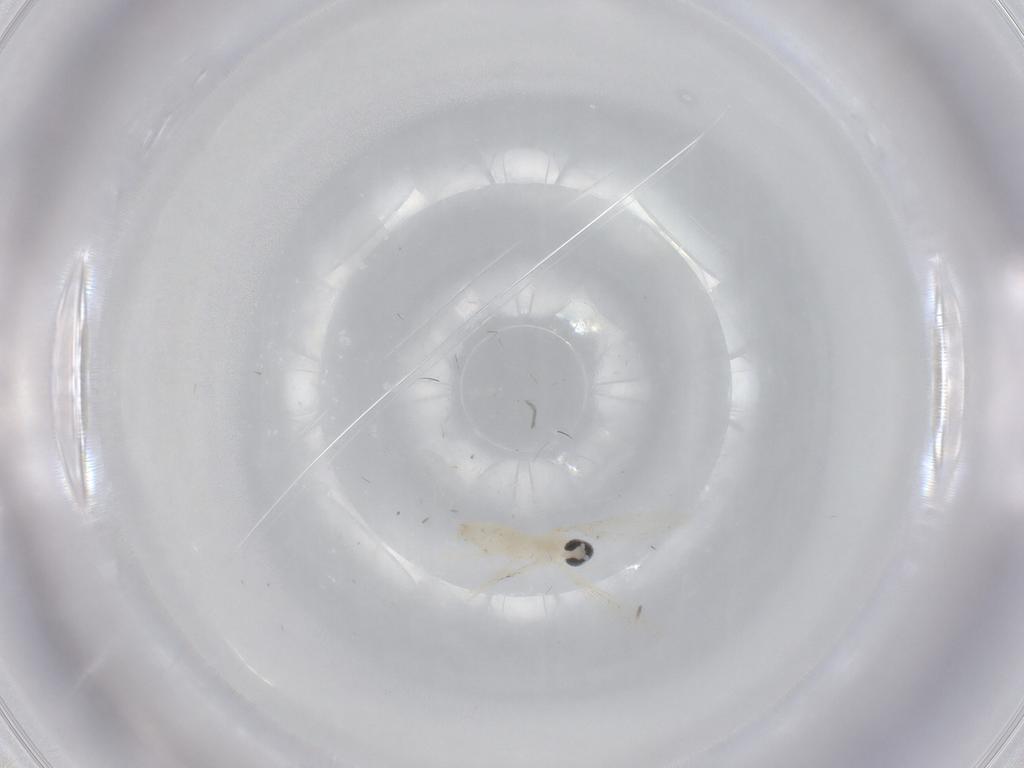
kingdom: Animalia
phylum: Arthropoda
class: Insecta
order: Diptera
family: Cecidomyiidae
